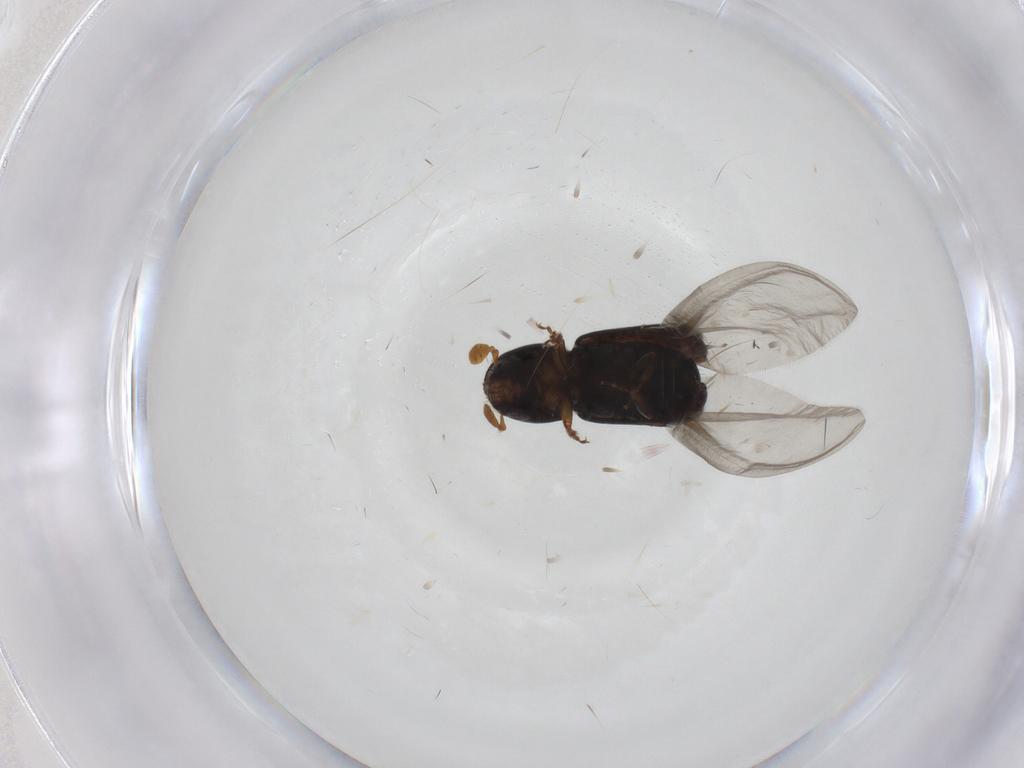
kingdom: Animalia
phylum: Arthropoda
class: Insecta
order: Coleoptera
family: Curculionidae
